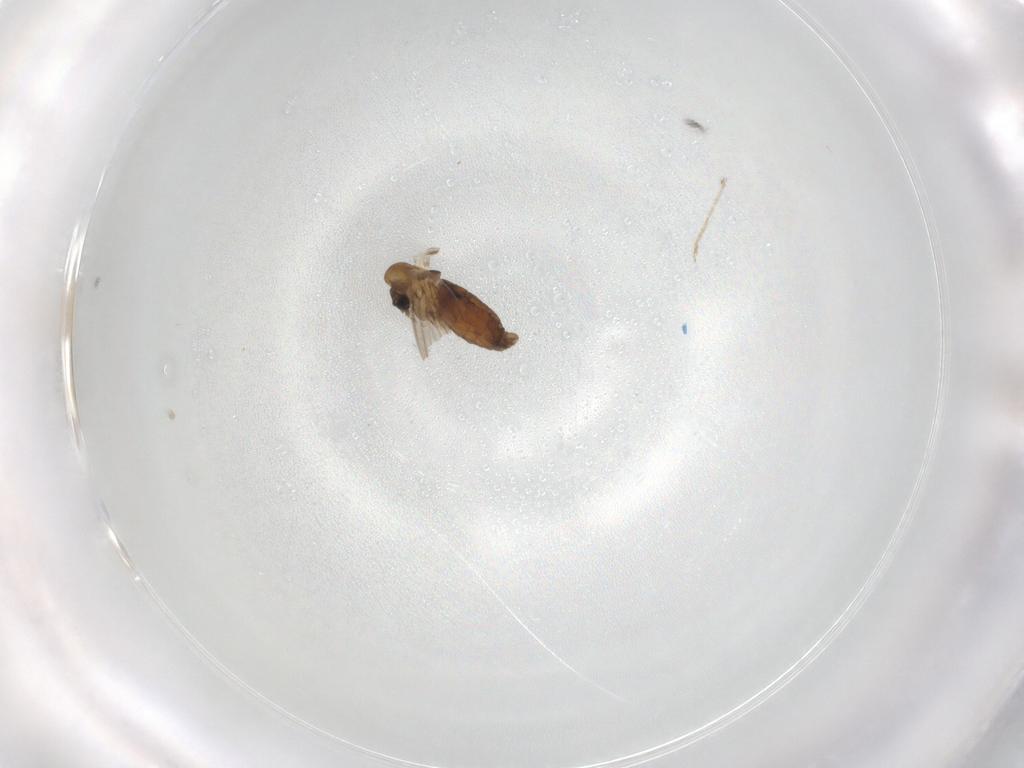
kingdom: Animalia
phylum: Arthropoda
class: Insecta
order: Diptera
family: Psychodidae
